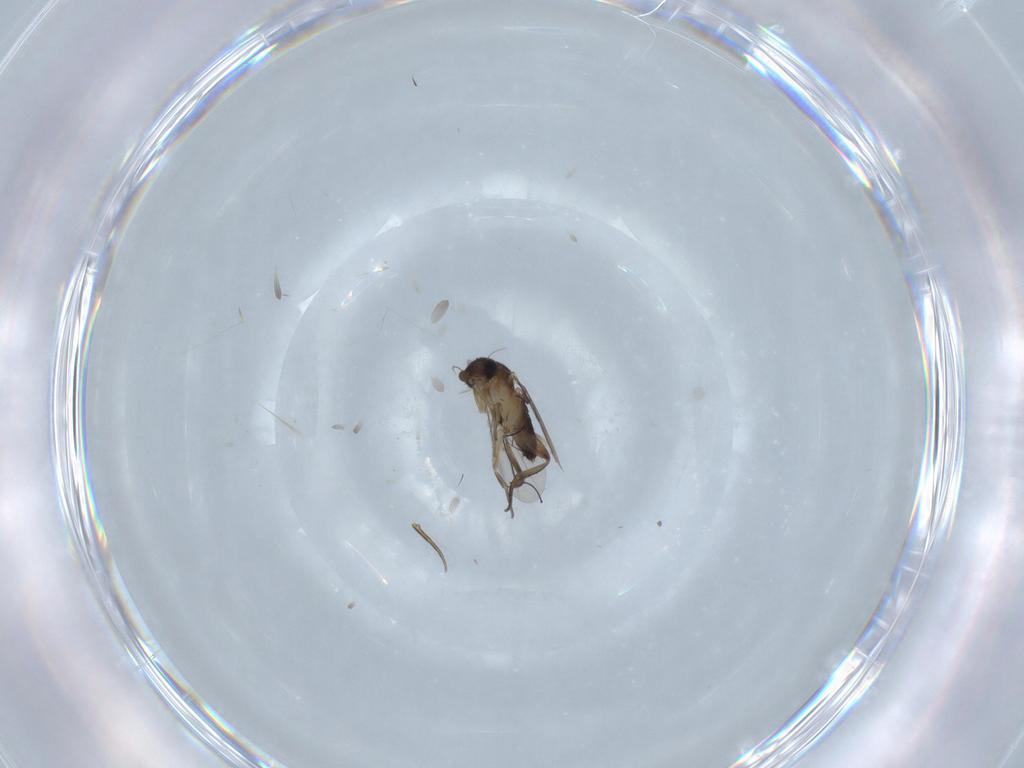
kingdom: Animalia
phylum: Arthropoda
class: Insecta
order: Diptera
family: Phoridae
